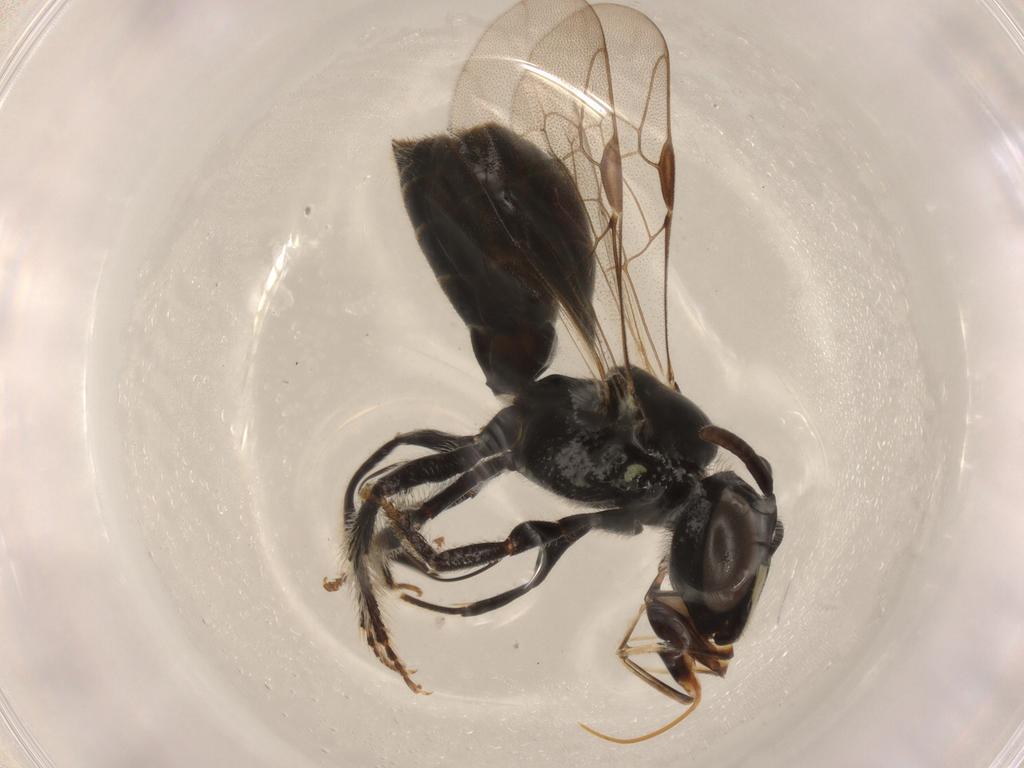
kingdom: Animalia
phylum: Arthropoda
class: Insecta
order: Hymenoptera
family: Apidae
